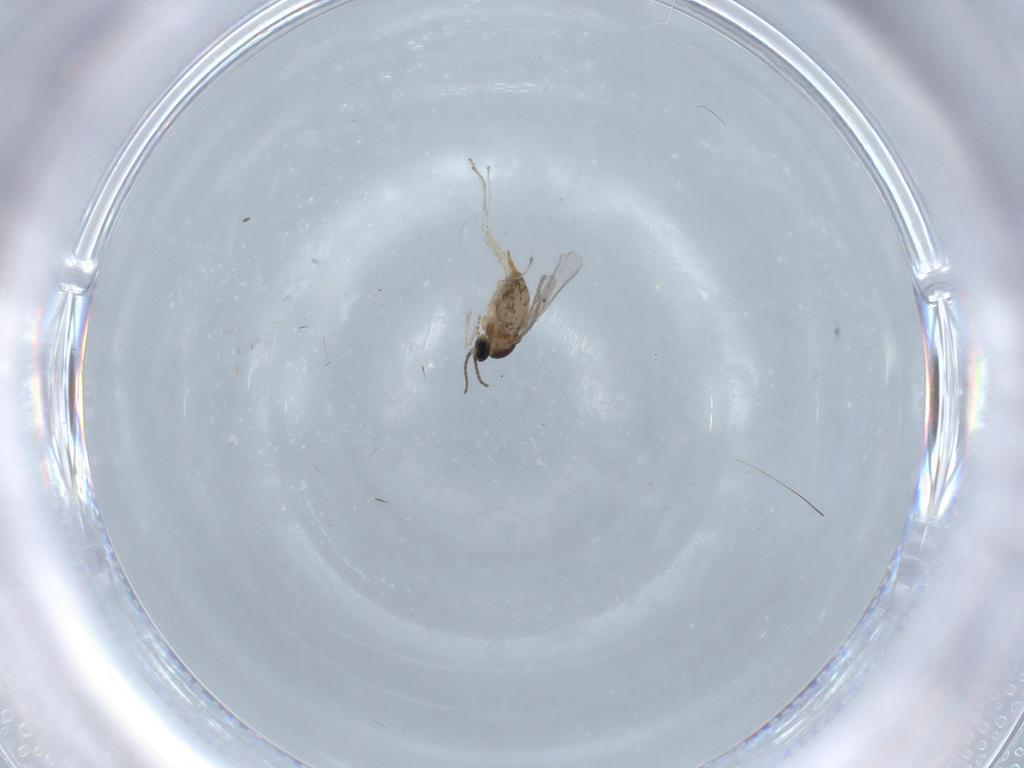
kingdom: Animalia
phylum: Arthropoda
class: Insecta
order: Diptera
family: Cecidomyiidae
